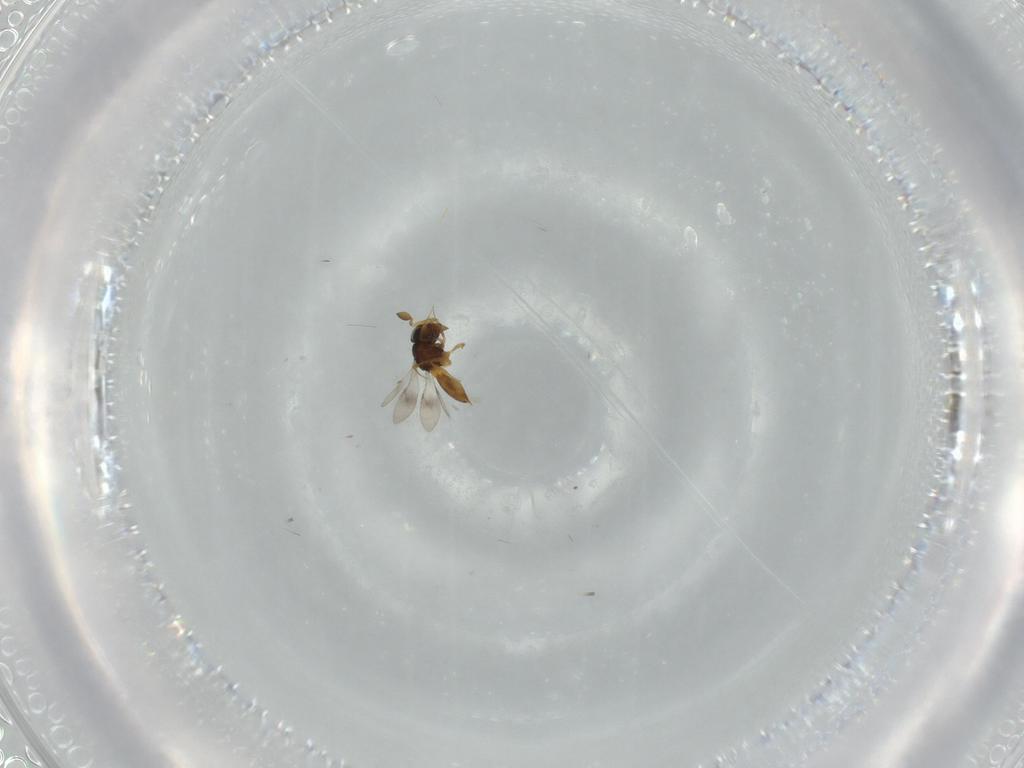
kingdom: Animalia
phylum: Arthropoda
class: Insecta
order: Hymenoptera
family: Scelionidae
